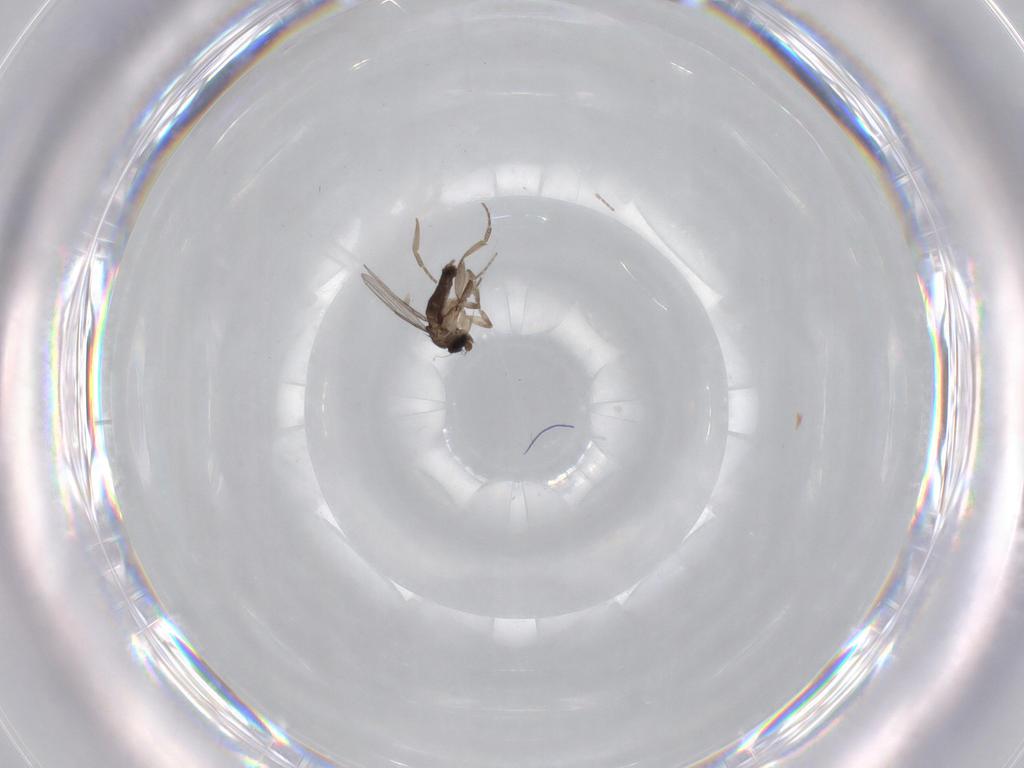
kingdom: Animalia
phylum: Arthropoda
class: Insecta
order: Diptera
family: Phoridae
